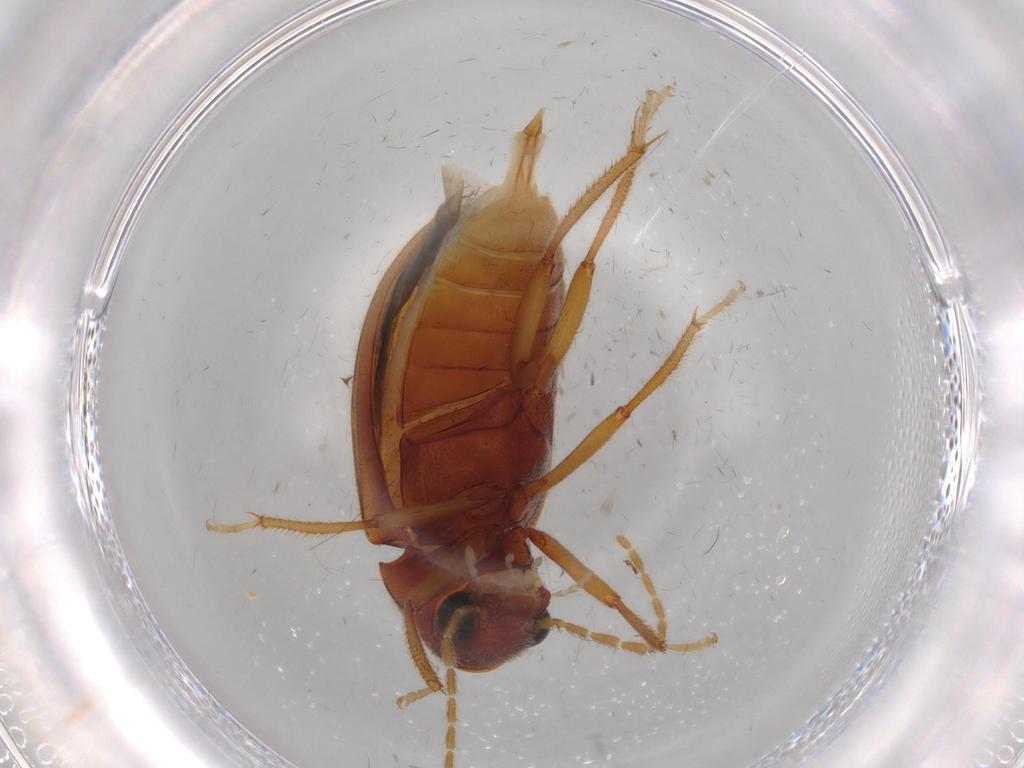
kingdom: Animalia
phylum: Arthropoda
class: Insecta
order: Coleoptera
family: Ptilodactylidae
